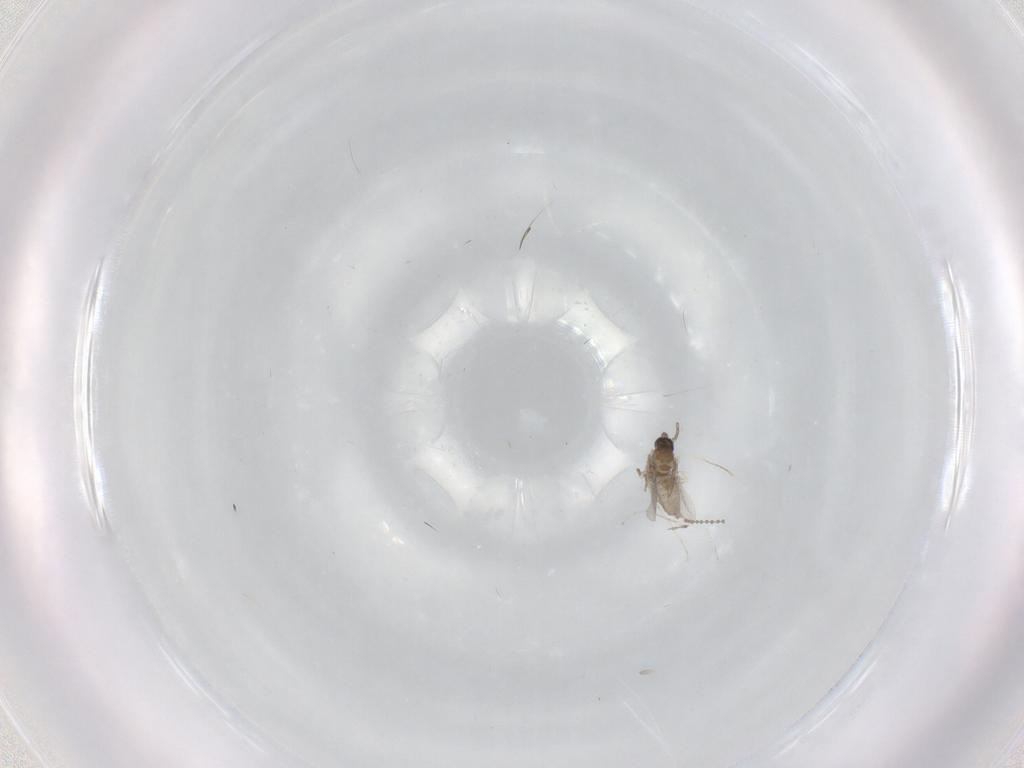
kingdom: Animalia
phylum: Arthropoda
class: Insecta
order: Diptera
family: Cecidomyiidae
